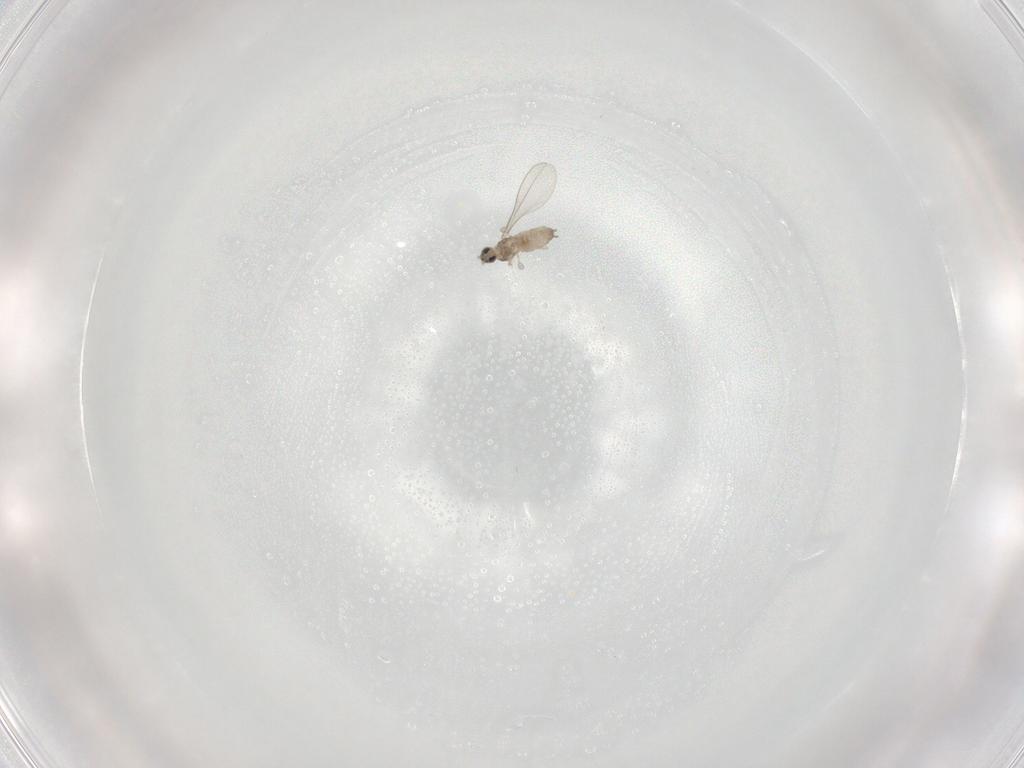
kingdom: Animalia
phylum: Arthropoda
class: Insecta
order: Diptera
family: Cecidomyiidae
